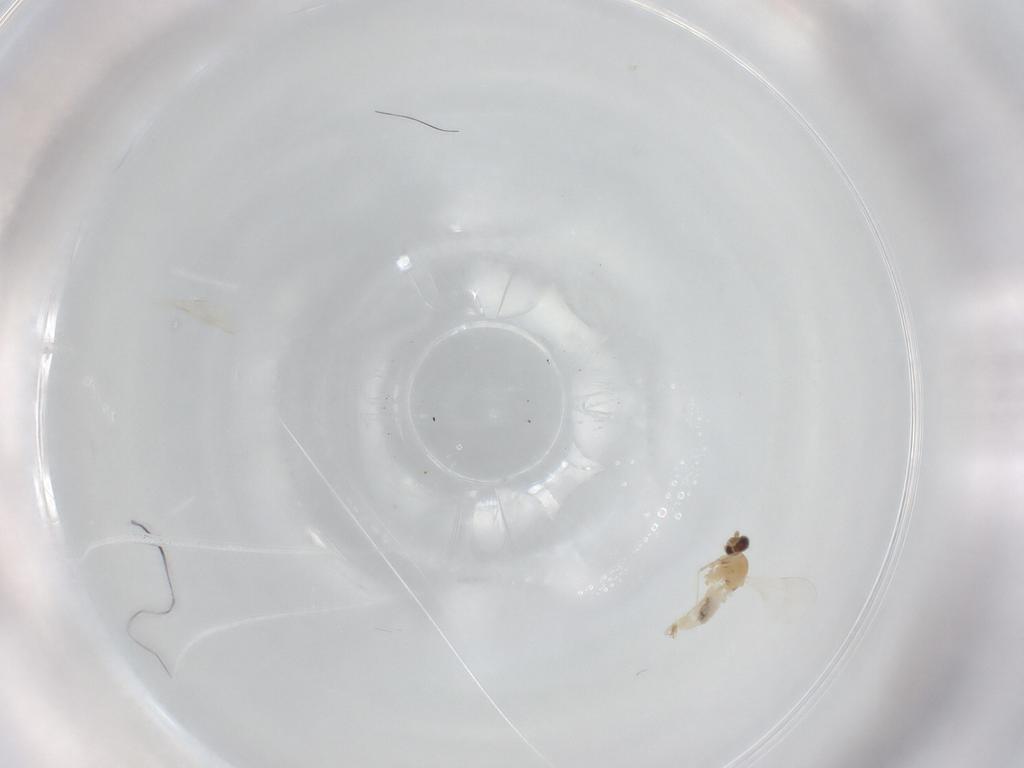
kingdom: Animalia
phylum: Arthropoda
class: Insecta
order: Diptera
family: Cecidomyiidae
